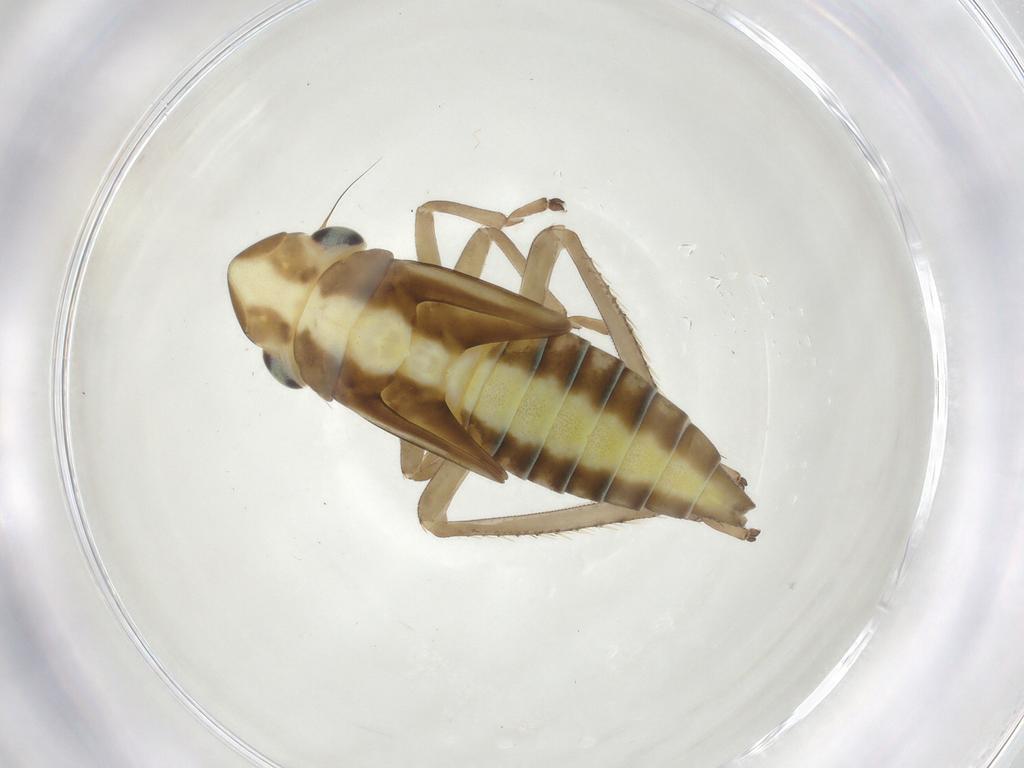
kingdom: Animalia
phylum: Arthropoda
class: Insecta
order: Hemiptera
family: Cicadellidae
